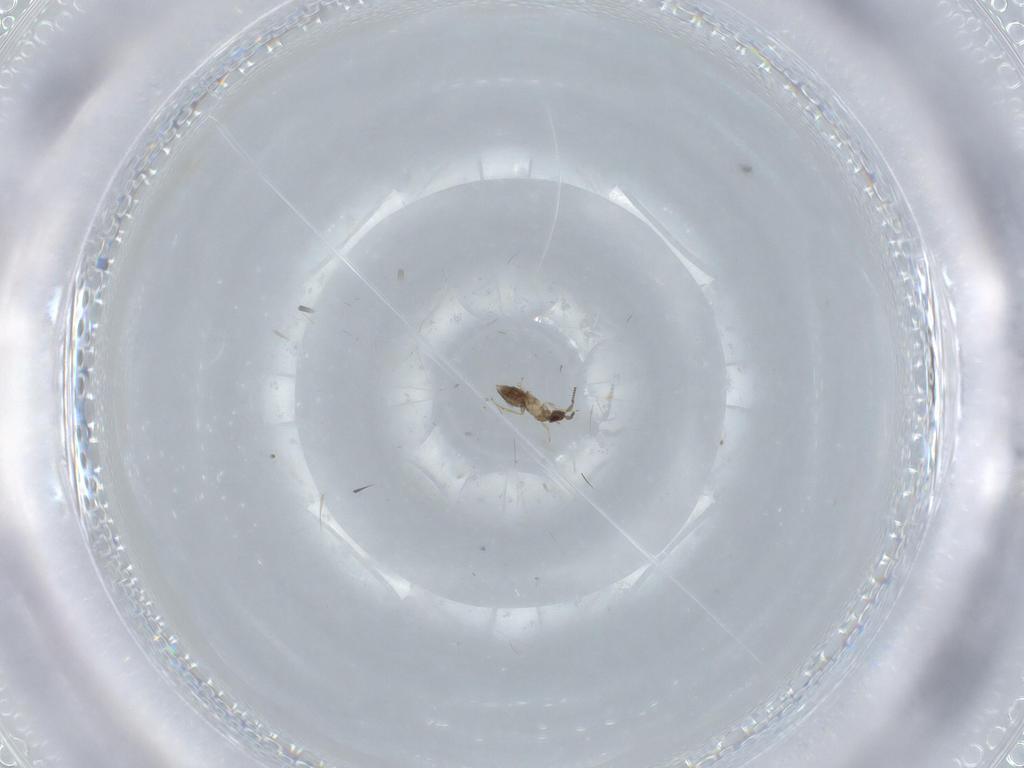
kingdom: Animalia
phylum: Arthropoda
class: Insecta
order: Hymenoptera
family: Mymaridae
